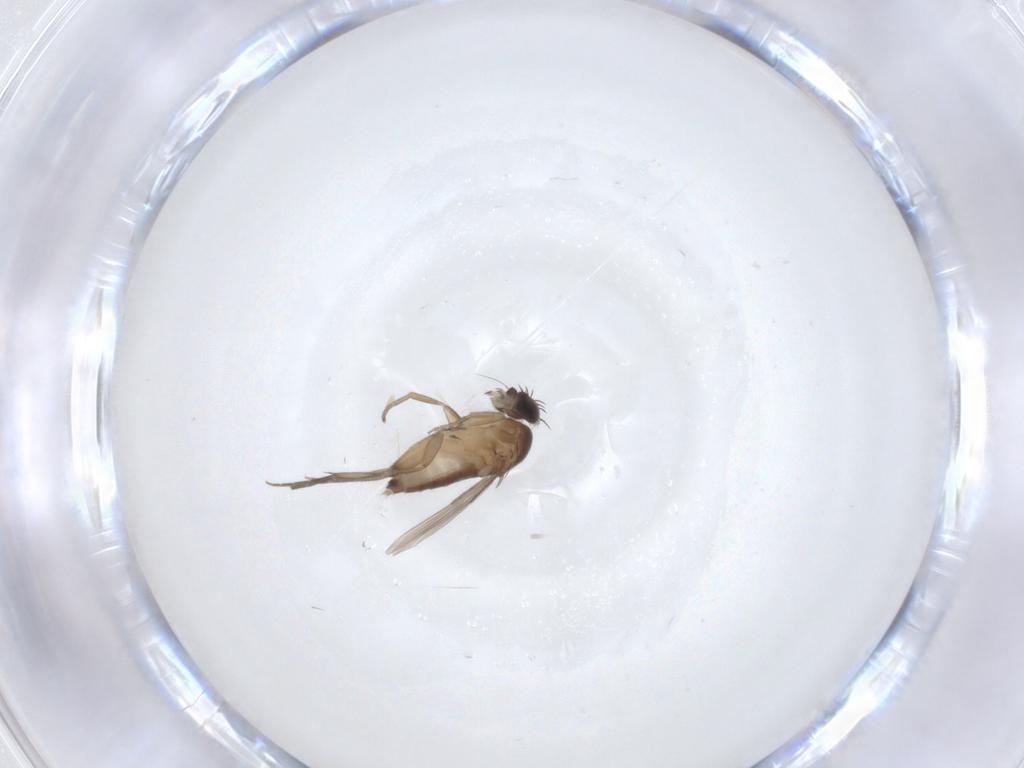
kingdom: Animalia
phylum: Arthropoda
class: Insecta
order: Diptera
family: Phoridae
